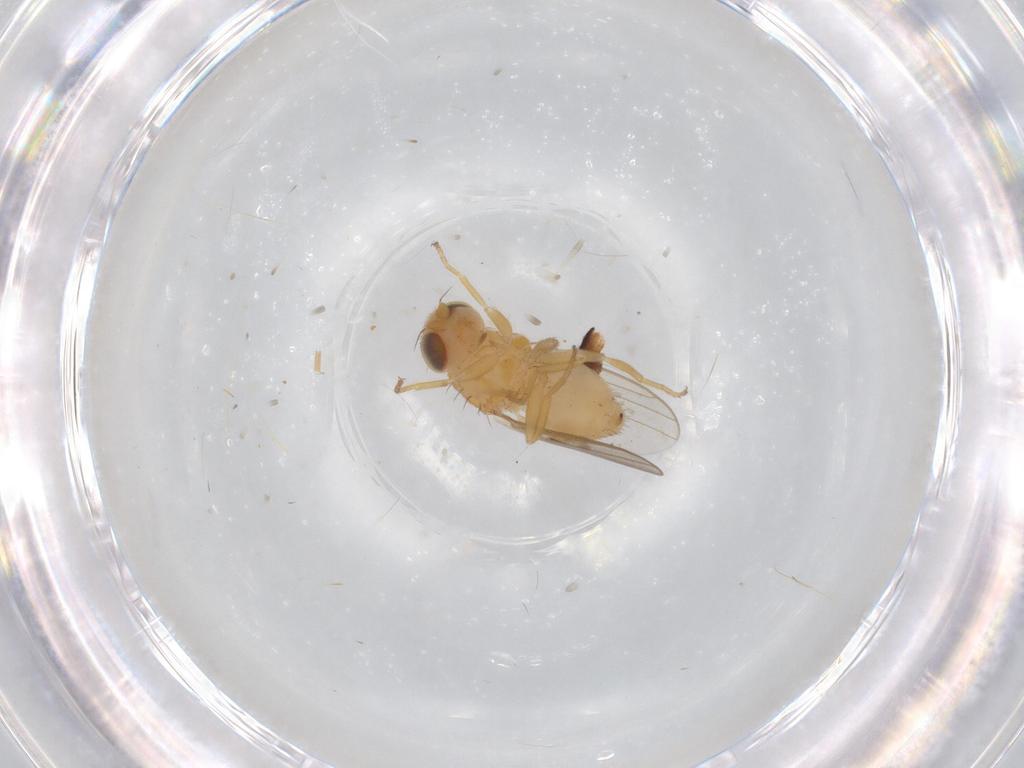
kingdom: Animalia
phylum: Arthropoda
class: Insecta
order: Diptera
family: Chloropidae
